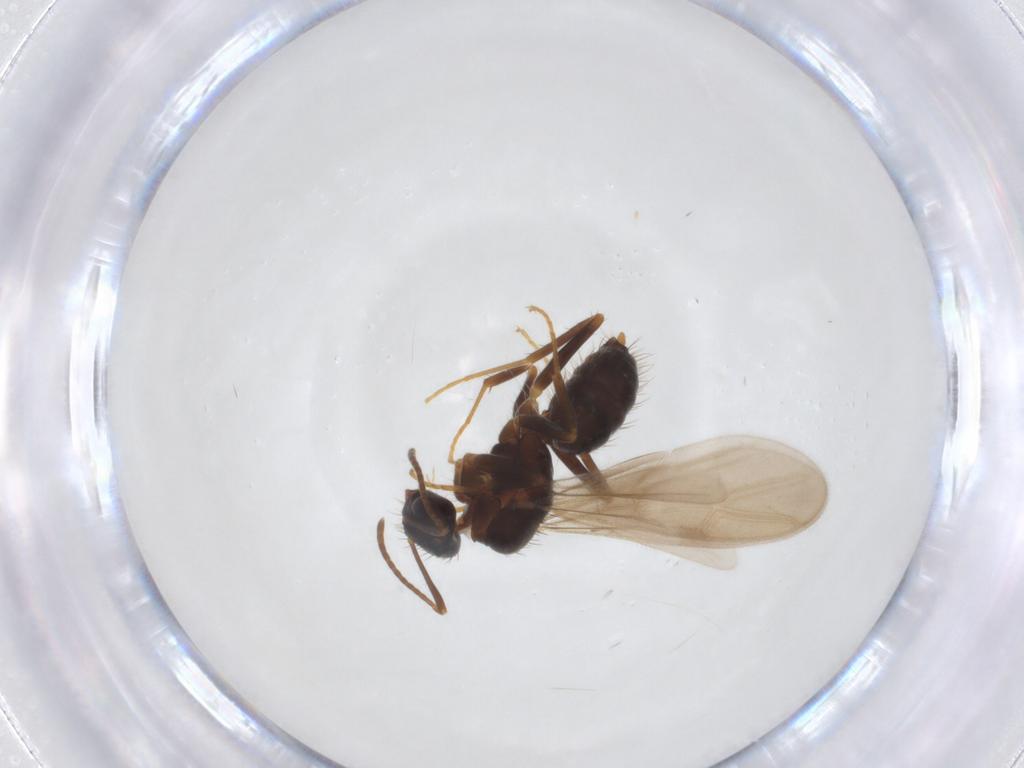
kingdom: Animalia
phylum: Arthropoda
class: Insecta
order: Hymenoptera
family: Formicidae
